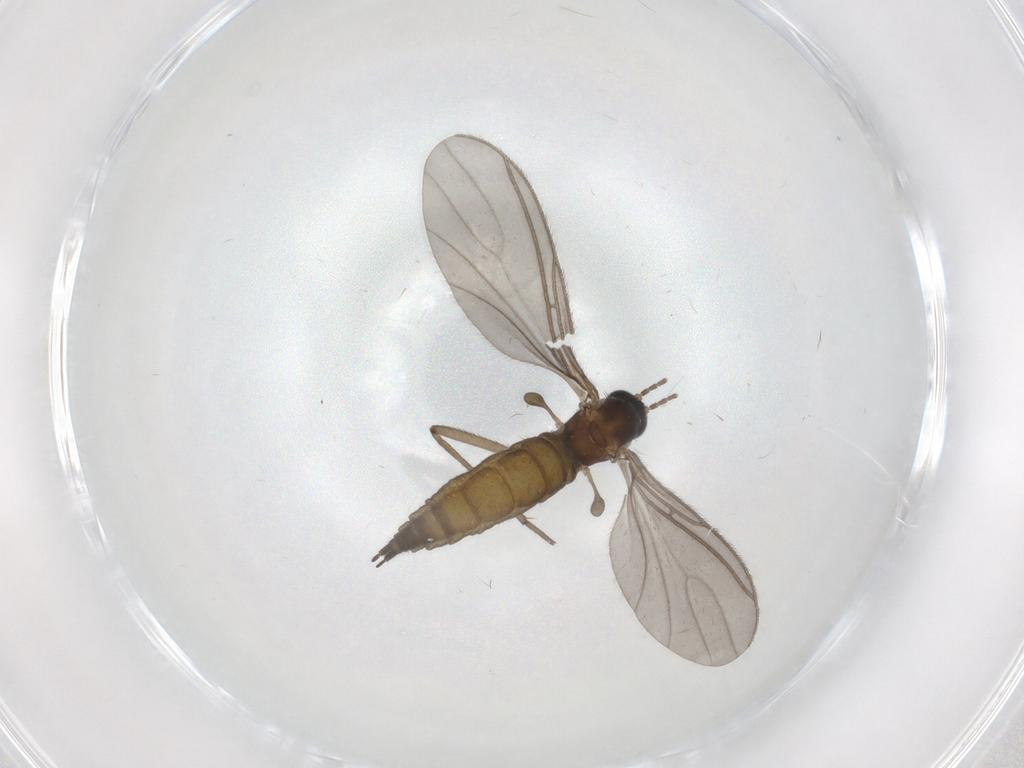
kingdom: Animalia
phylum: Arthropoda
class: Insecta
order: Diptera
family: Sciaridae
